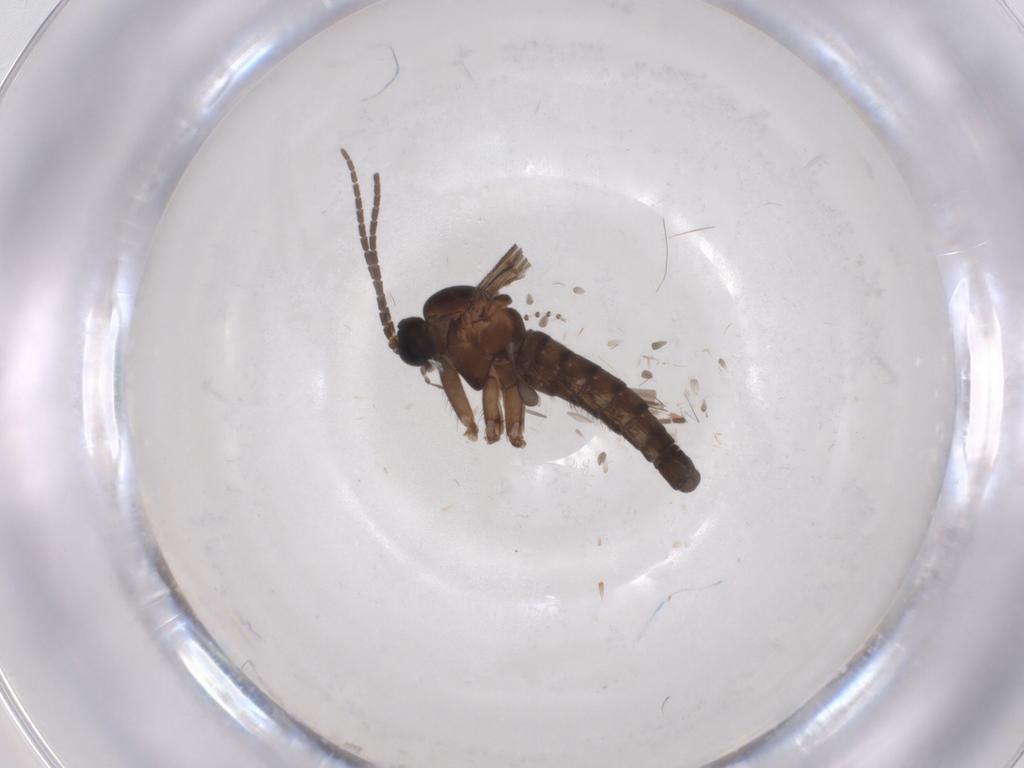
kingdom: Animalia
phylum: Arthropoda
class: Insecta
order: Diptera
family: Sciaridae
